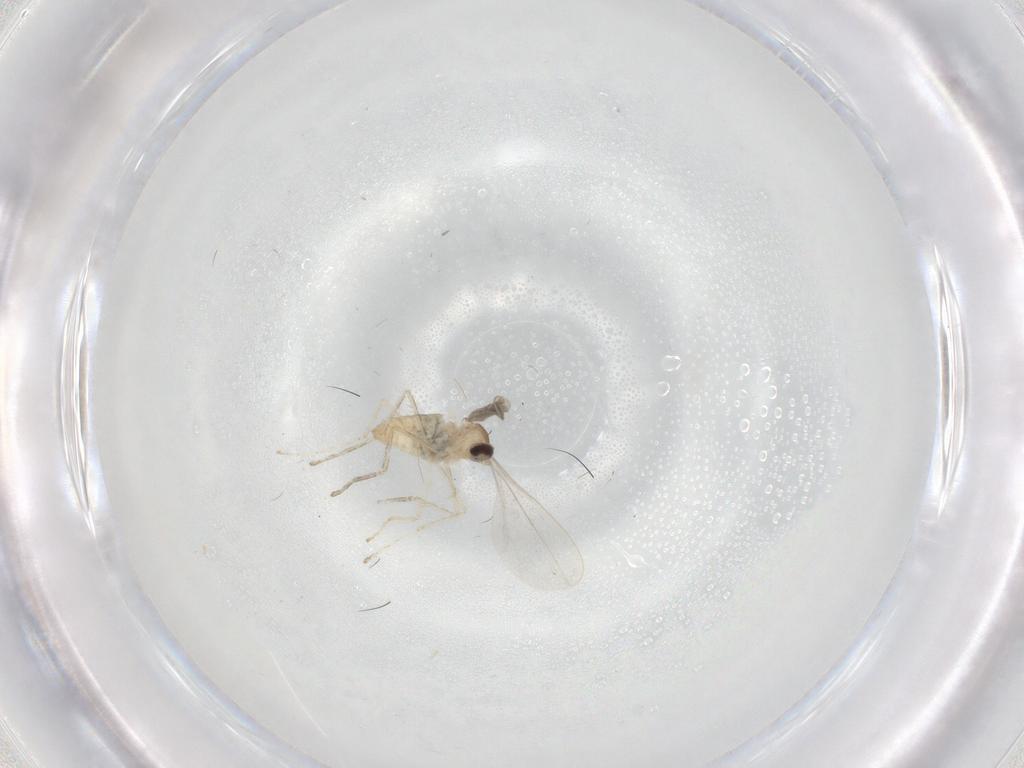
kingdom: Animalia
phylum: Arthropoda
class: Insecta
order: Diptera
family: Cecidomyiidae
